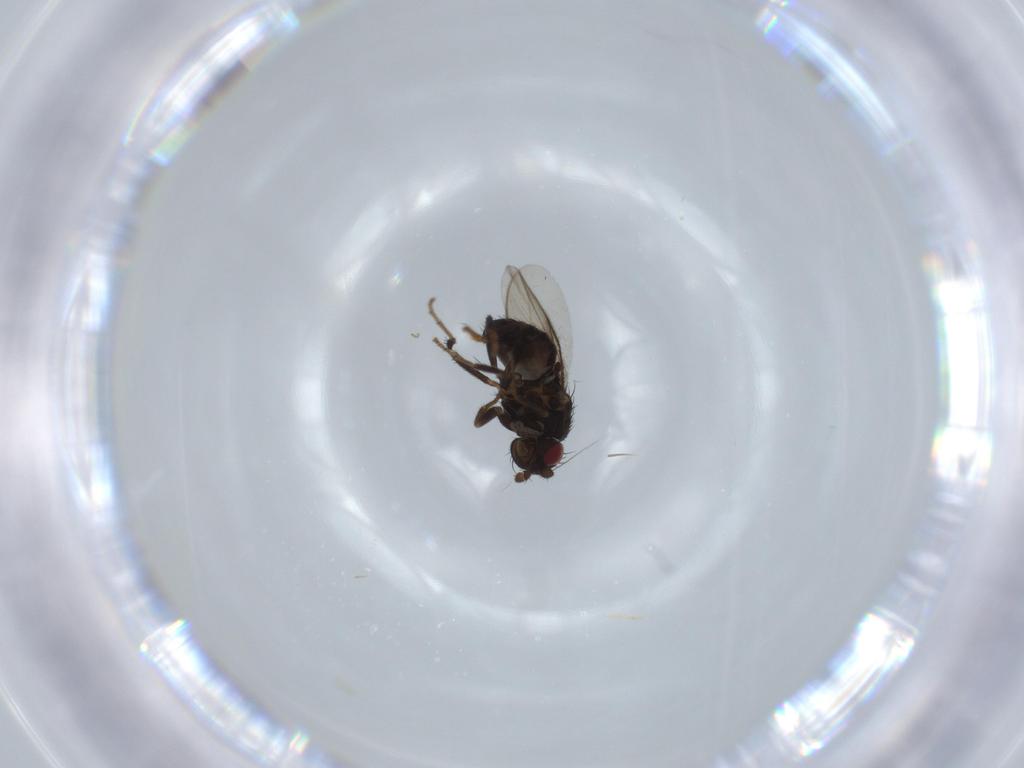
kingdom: Animalia
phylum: Arthropoda
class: Insecta
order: Diptera
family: Sphaeroceridae
